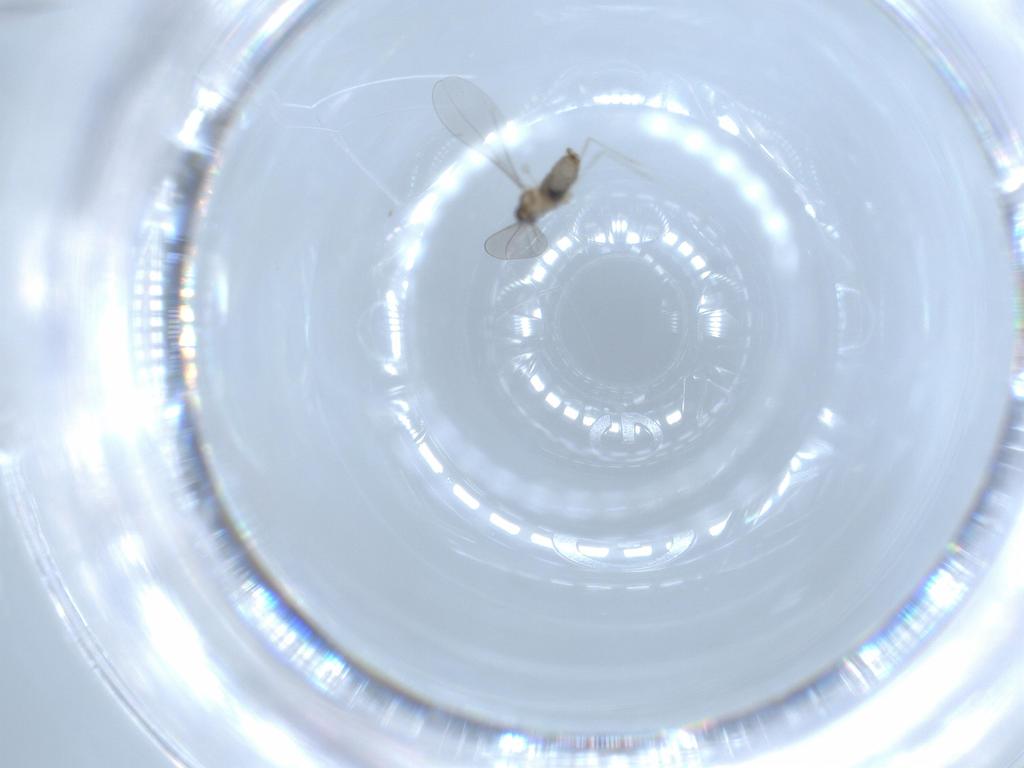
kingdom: Animalia
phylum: Arthropoda
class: Insecta
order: Diptera
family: Cecidomyiidae
